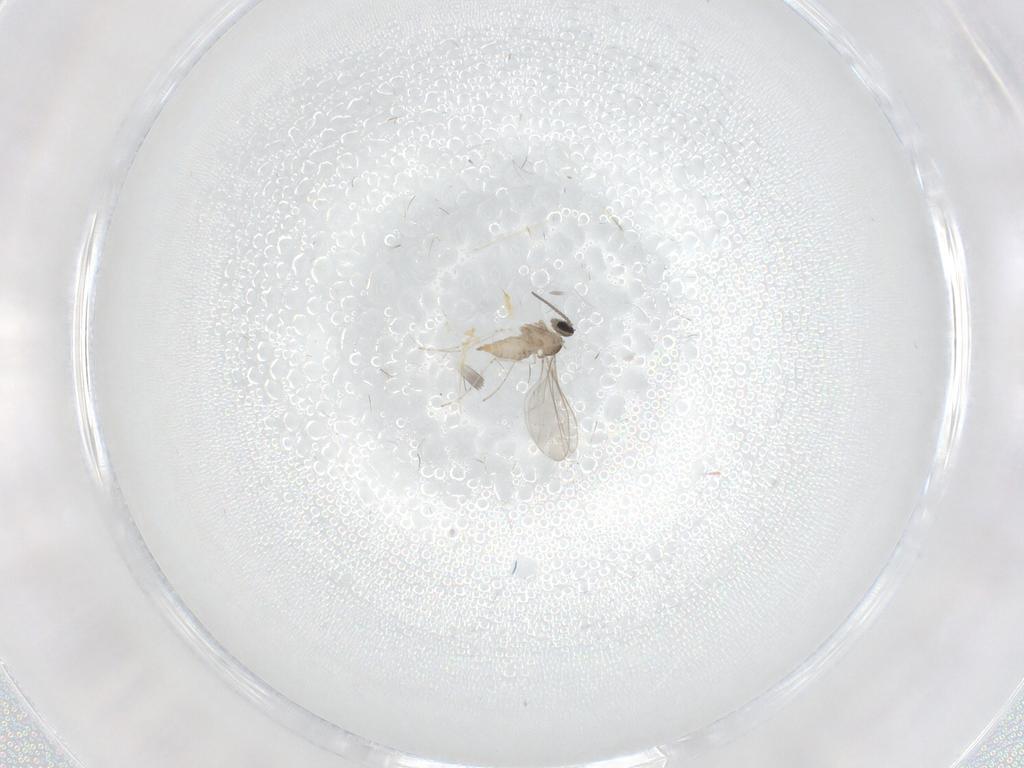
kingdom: Animalia
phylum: Arthropoda
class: Insecta
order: Diptera
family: Cecidomyiidae
